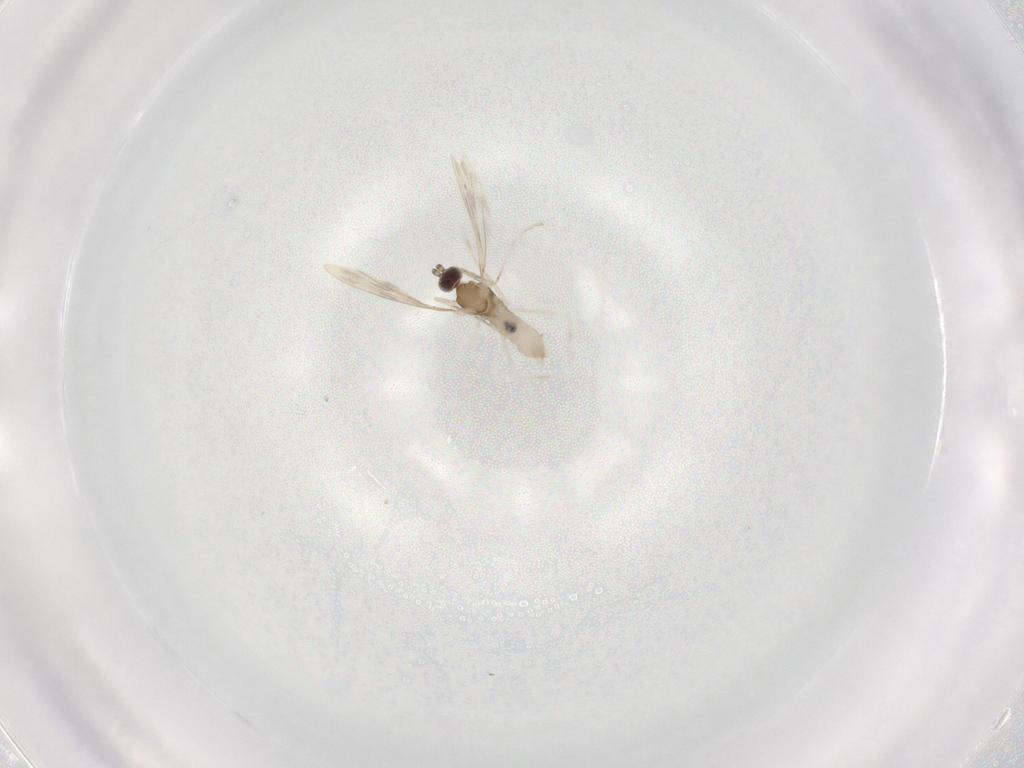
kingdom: Animalia
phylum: Arthropoda
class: Insecta
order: Diptera
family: Cecidomyiidae
